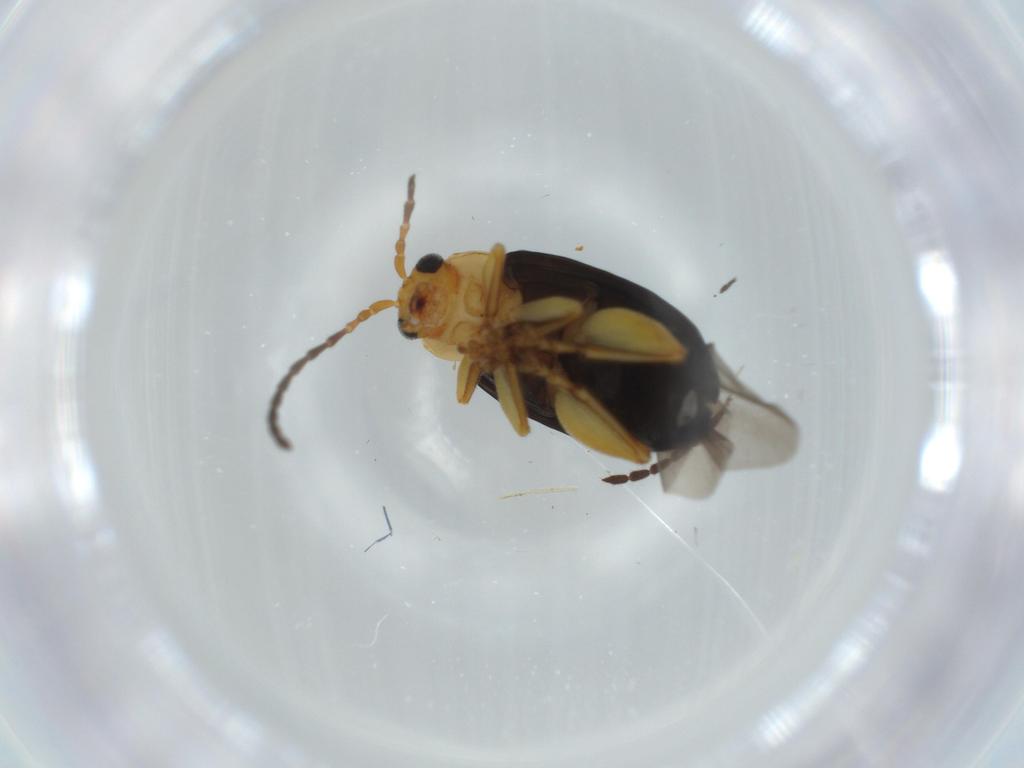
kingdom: Animalia
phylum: Arthropoda
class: Insecta
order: Coleoptera
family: Chrysomelidae
